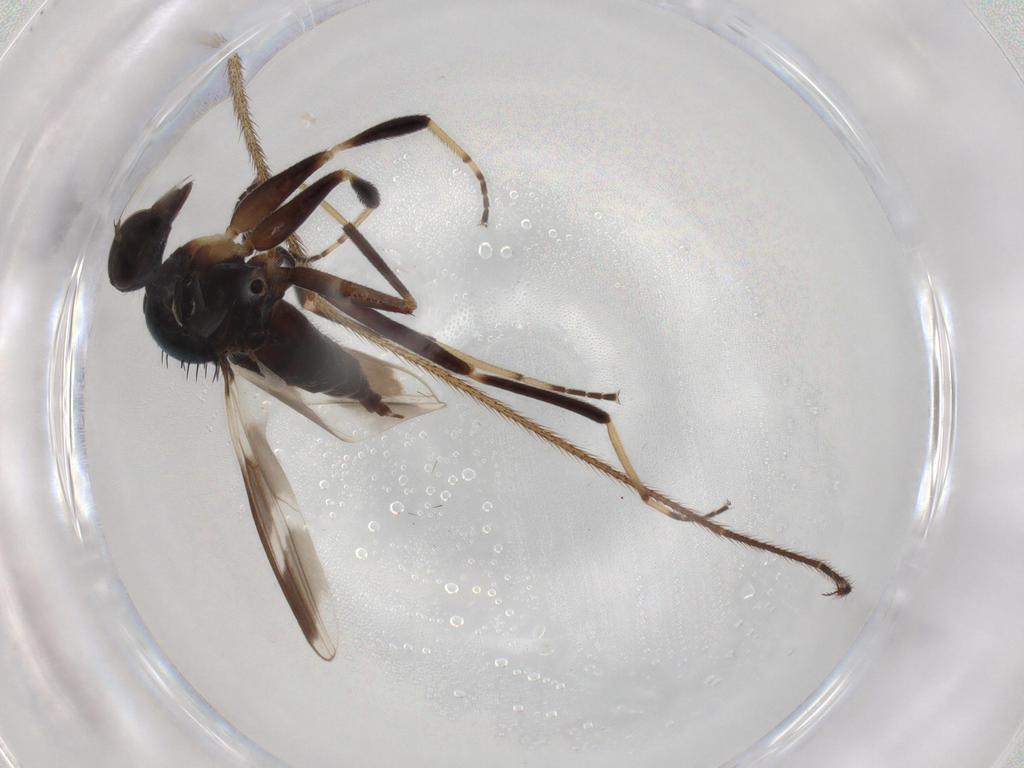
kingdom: Animalia
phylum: Arthropoda
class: Insecta
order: Diptera
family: Hybotidae
